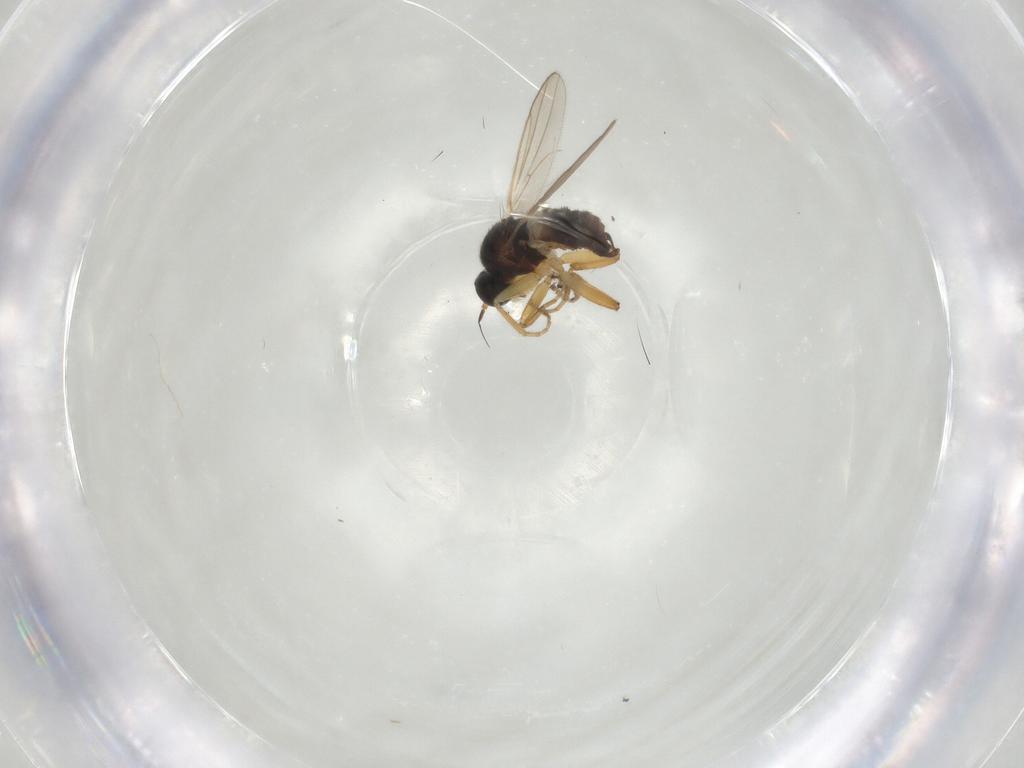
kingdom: Animalia
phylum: Arthropoda
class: Insecta
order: Diptera
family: Hybotidae
